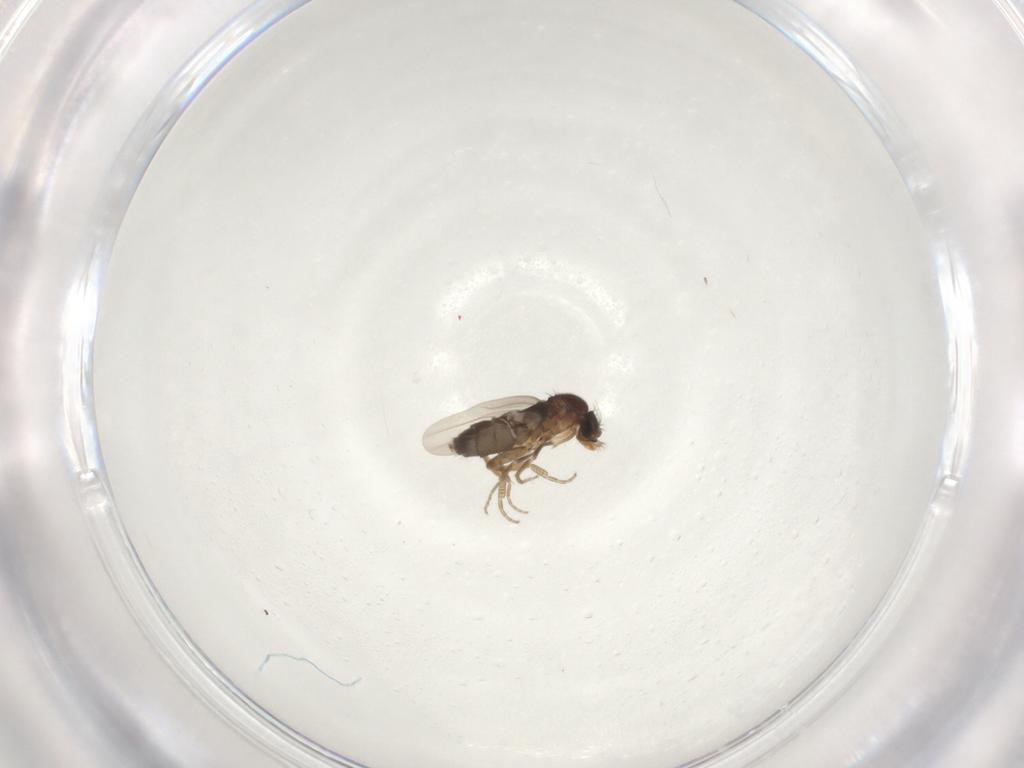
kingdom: Animalia
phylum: Arthropoda
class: Insecta
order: Diptera
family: Phoridae
